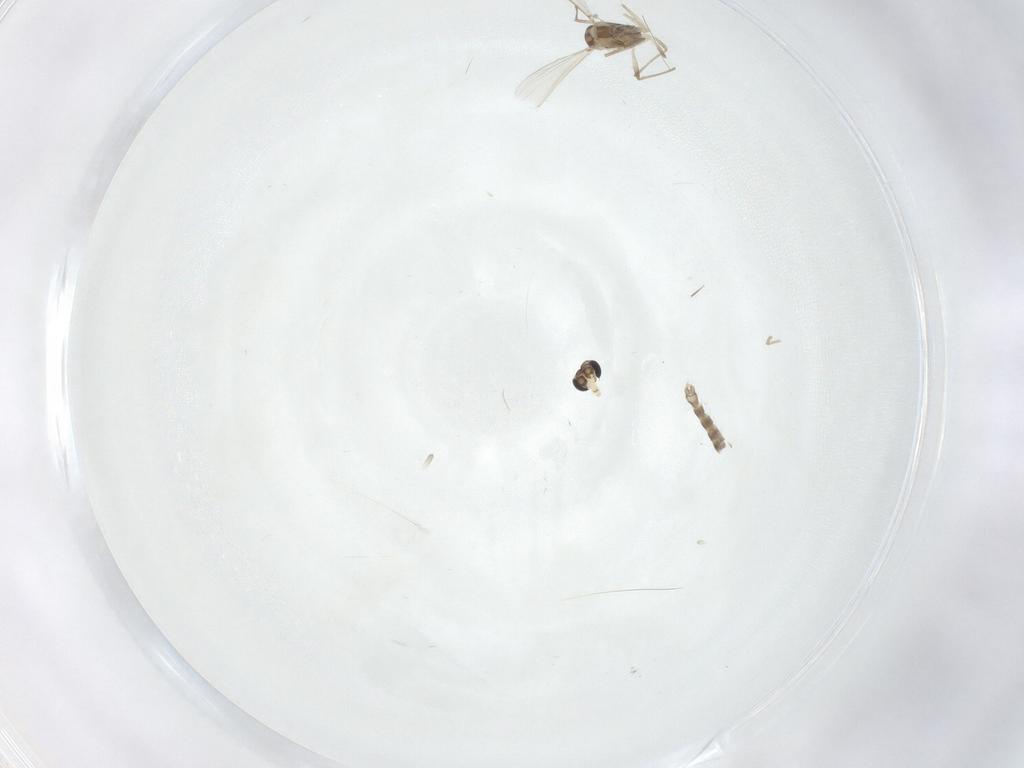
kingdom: Animalia
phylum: Arthropoda
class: Insecta
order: Diptera
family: Chironomidae
